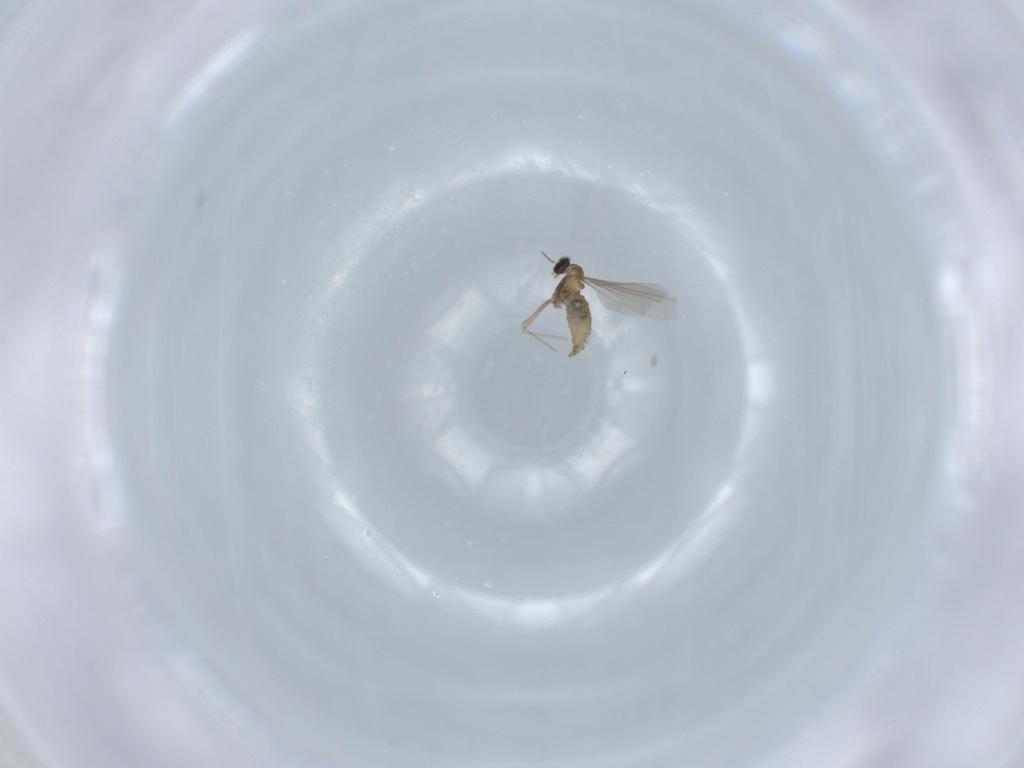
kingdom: Animalia
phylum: Arthropoda
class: Insecta
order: Diptera
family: Cecidomyiidae
